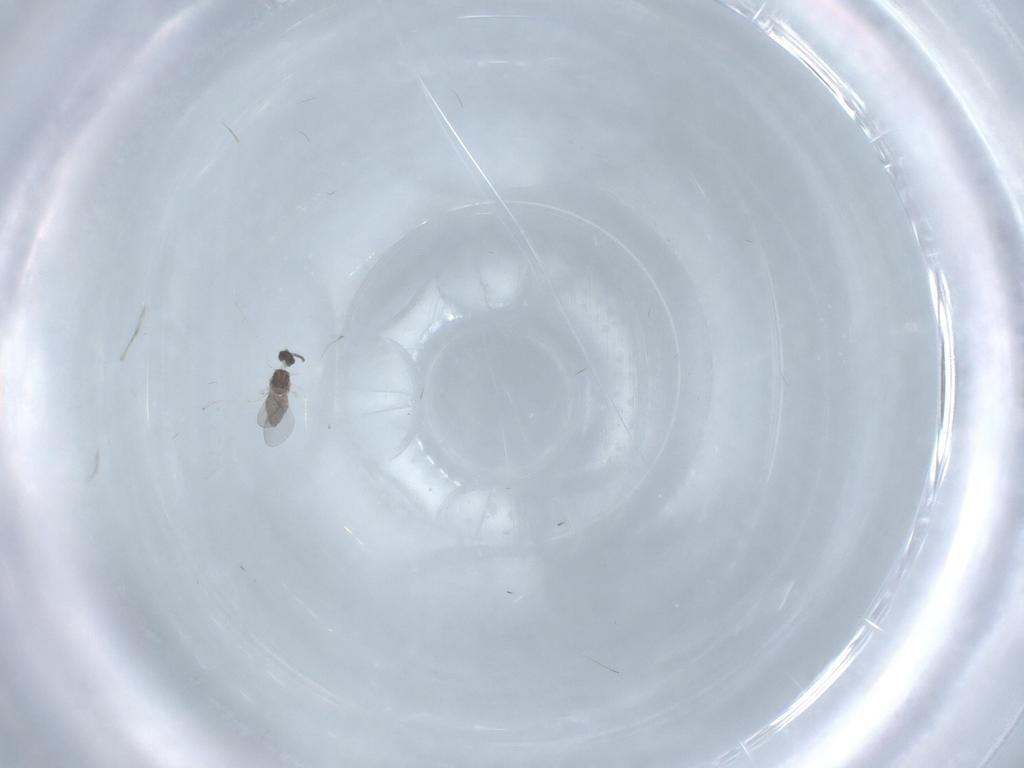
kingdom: Animalia
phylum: Arthropoda
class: Insecta
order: Diptera
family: Cecidomyiidae
